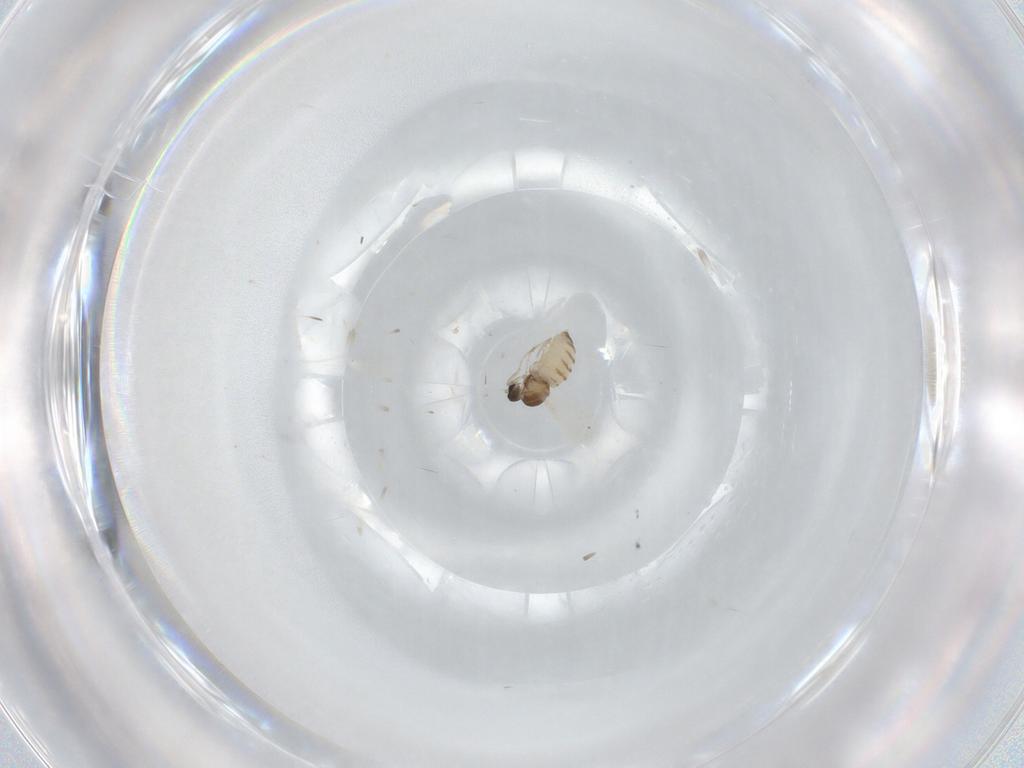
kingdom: Animalia
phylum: Arthropoda
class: Insecta
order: Diptera
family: Cecidomyiidae
